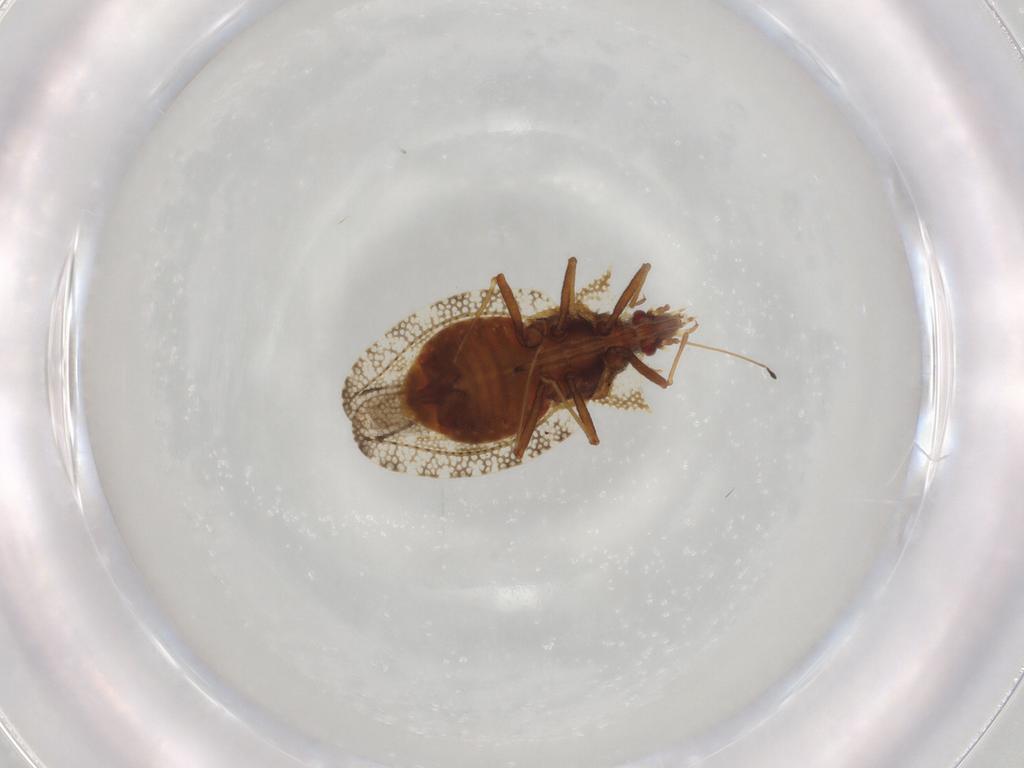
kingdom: Animalia
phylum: Arthropoda
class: Insecta
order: Hemiptera
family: Tingidae
